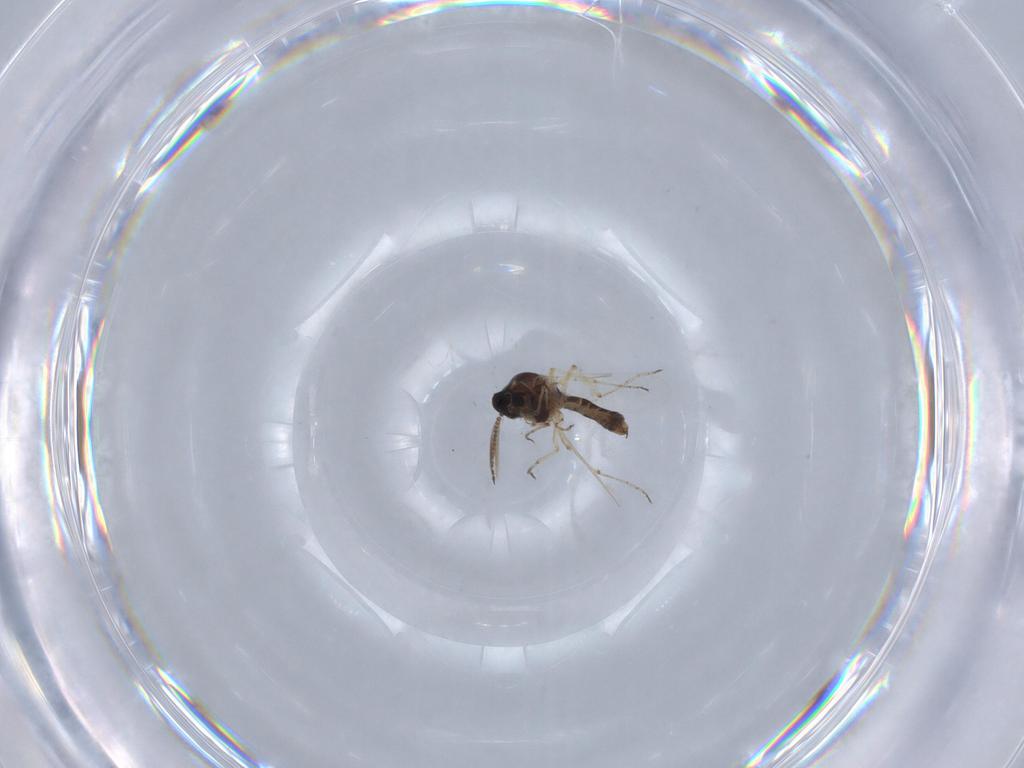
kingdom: Animalia
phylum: Arthropoda
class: Insecta
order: Diptera
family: Ceratopogonidae
